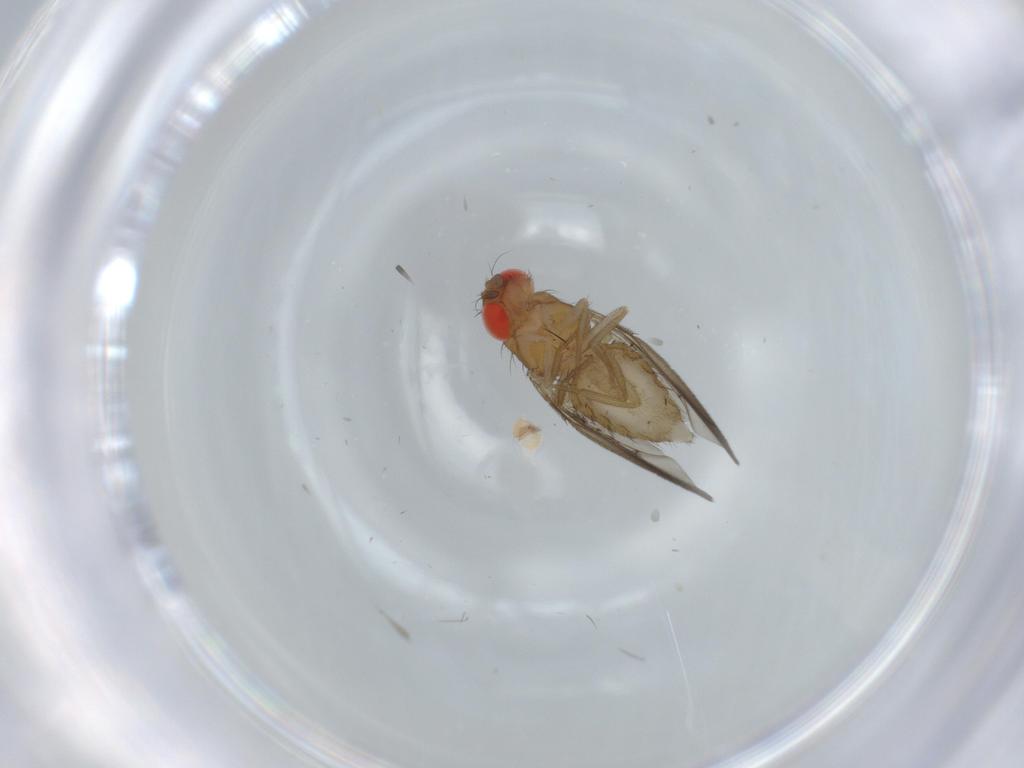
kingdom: Animalia
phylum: Arthropoda
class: Insecta
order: Diptera
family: Drosophilidae
